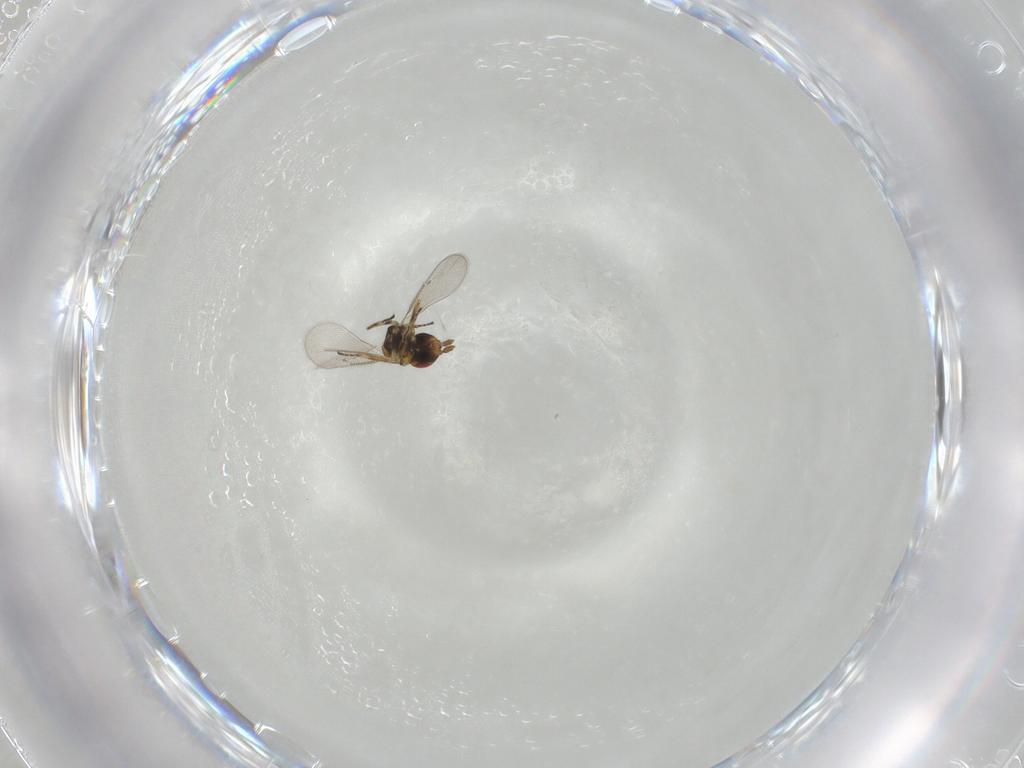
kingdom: Animalia
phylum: Arthropoda
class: Insecta
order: Hymenoptera
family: Eulophidae
